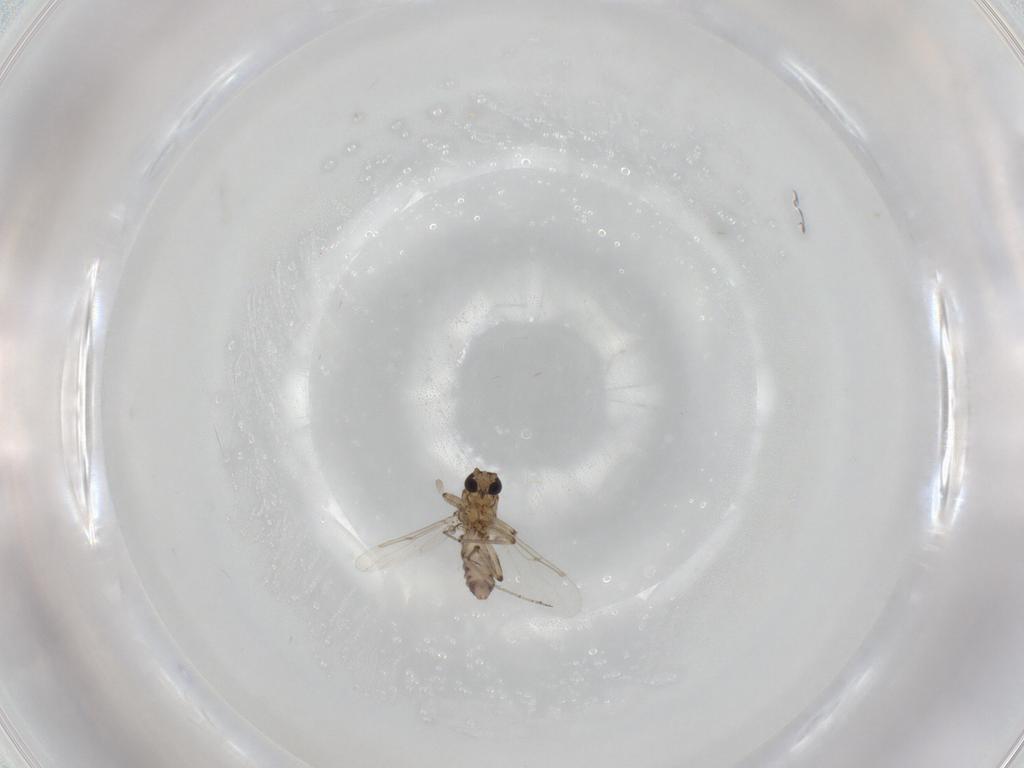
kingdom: Animalia
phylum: Arthropoda
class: Insecta
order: Diptera
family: Ceratopogonidae
